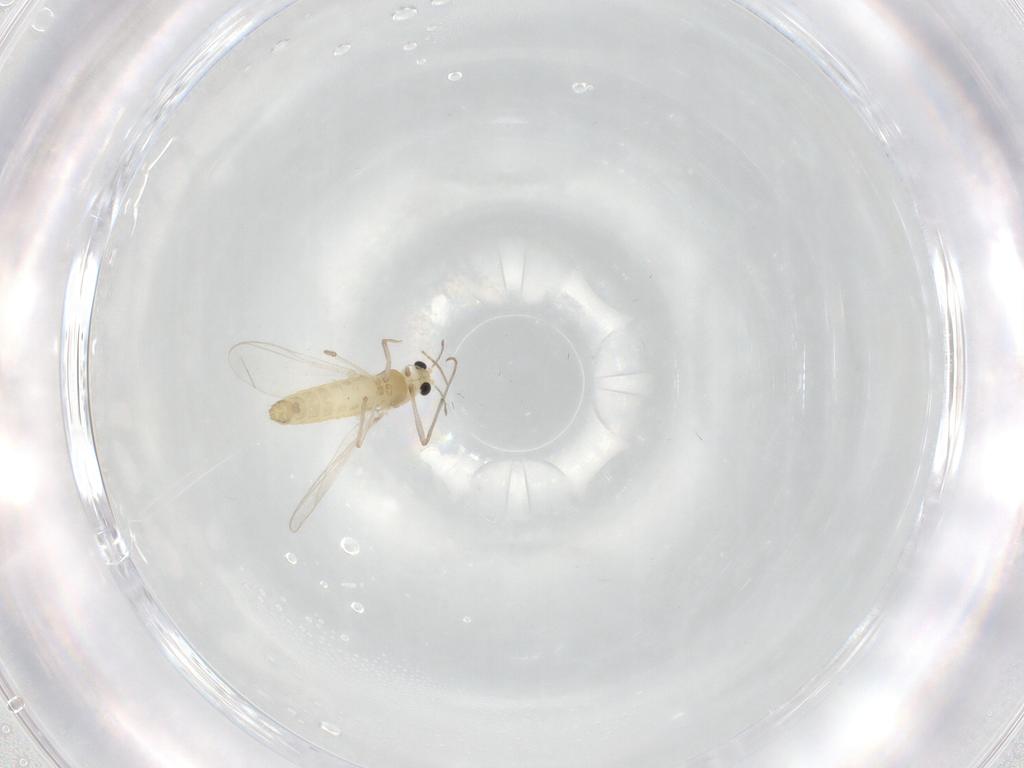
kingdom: Animalia
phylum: Arthropoda
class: Insecta
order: Diptera
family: Chironomidae
